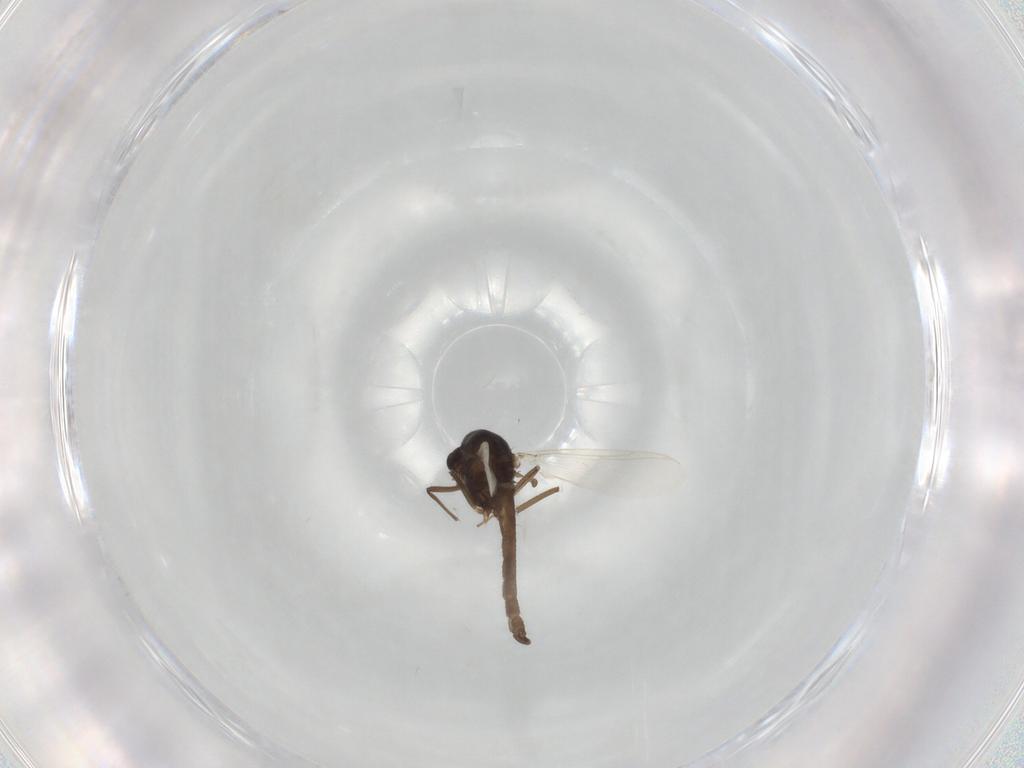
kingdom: Animalia
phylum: Arthropoda
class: Insecta
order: Diptera
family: Chironomidae
